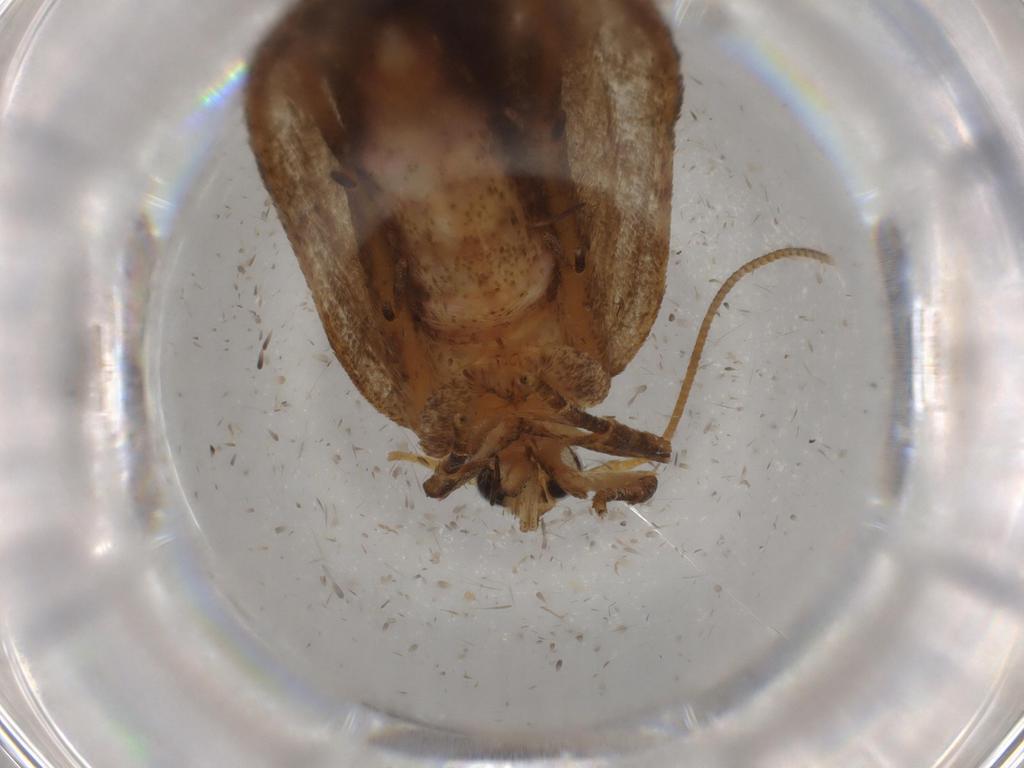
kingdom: Animalia
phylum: Arthropoda
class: Insecta
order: Lepidoptera
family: Autostichidae
